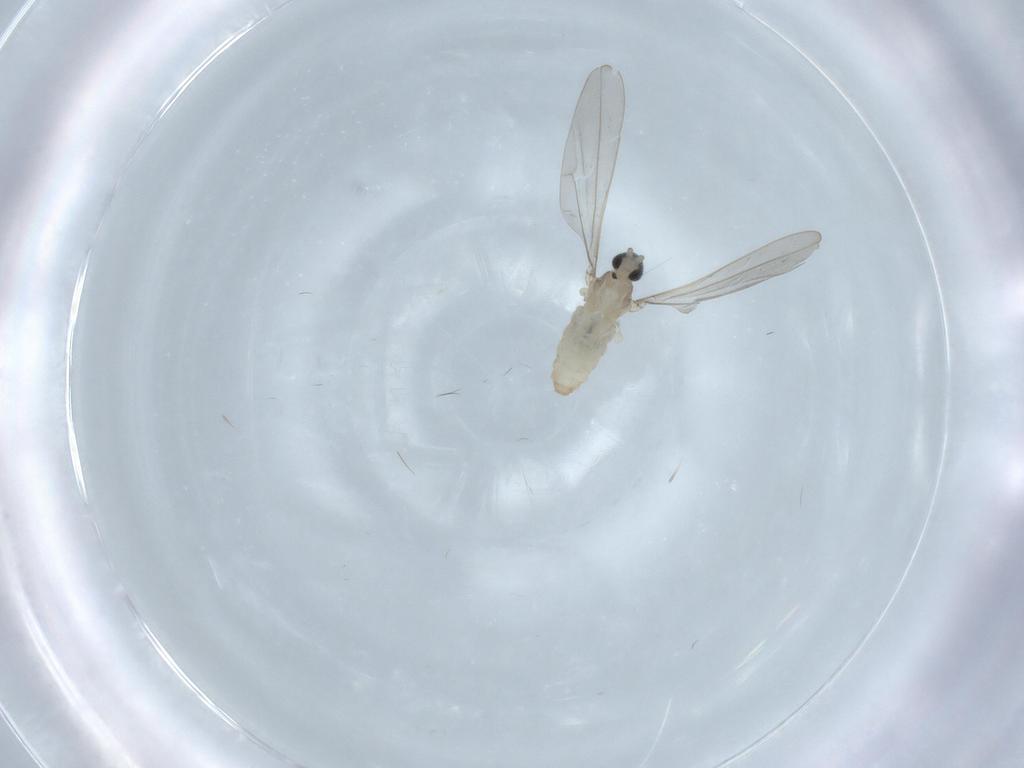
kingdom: Animalia
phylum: Arthropoda
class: Insecta
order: Diptera
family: Cecidomyiidae
